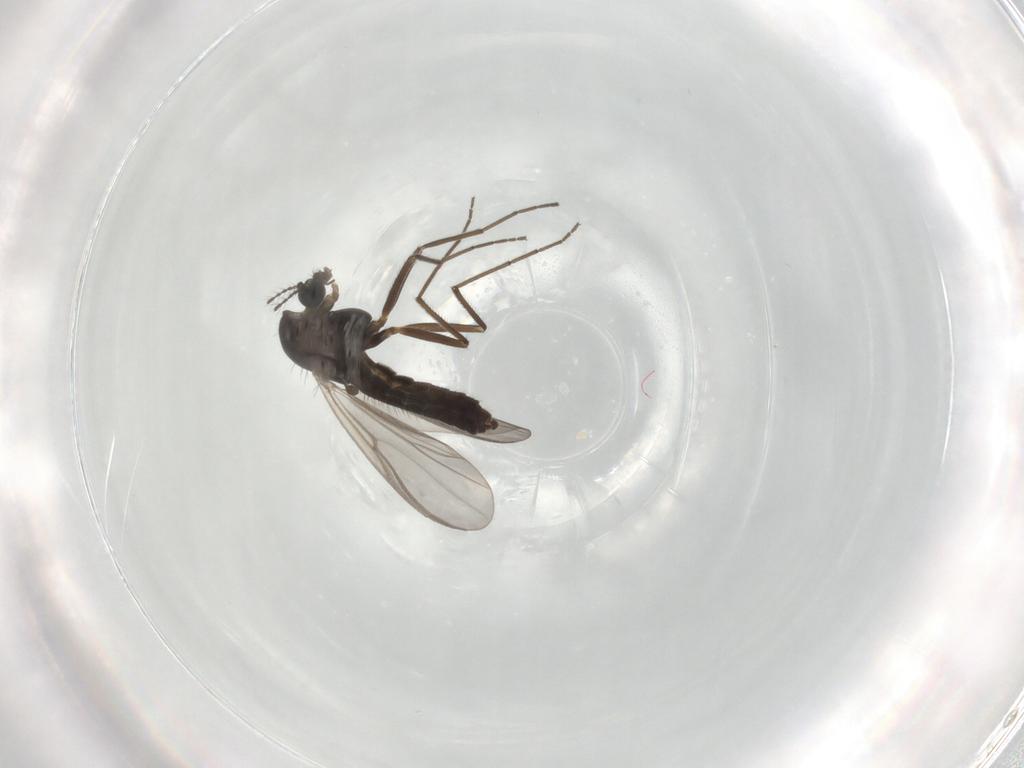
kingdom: Animalia
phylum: Arthropoda
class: Insecta
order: Diptera
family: Chironomidae
